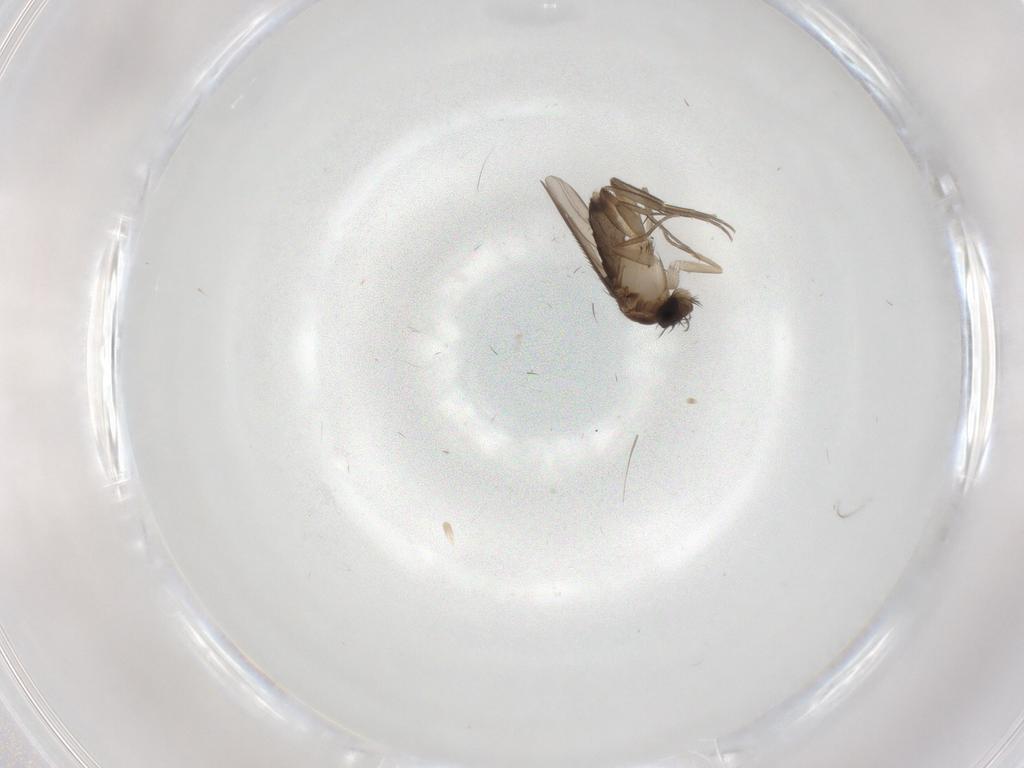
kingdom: Animalia
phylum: Arthropoda
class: Insecta
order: Diptera
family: Phoridae
